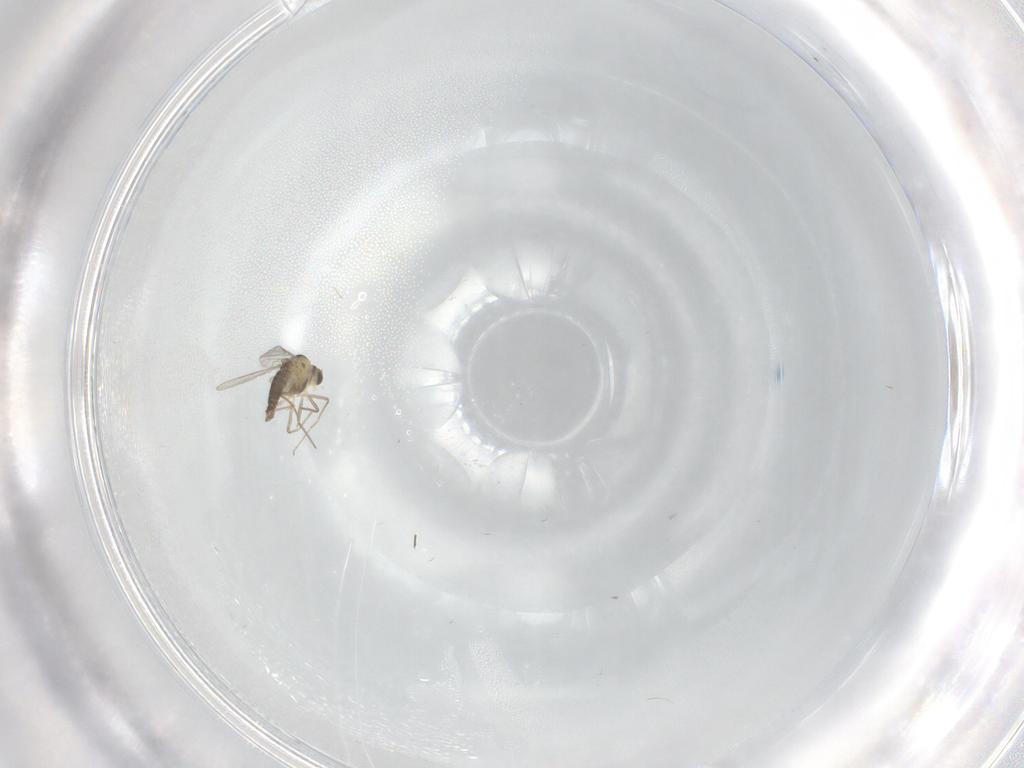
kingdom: Animalia
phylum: Arthropoda
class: Insecta
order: Diptera
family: Chironomidae
